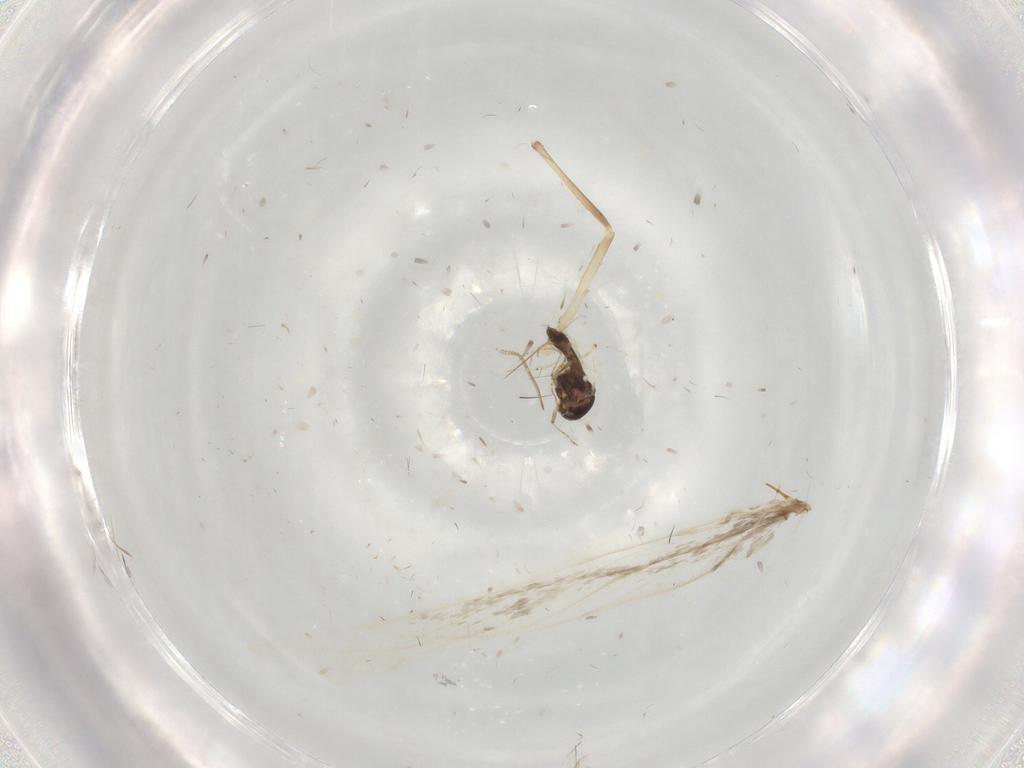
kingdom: Animalia
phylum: Arthropoda
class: Insecta
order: Diptera
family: Ceratopogonidae
